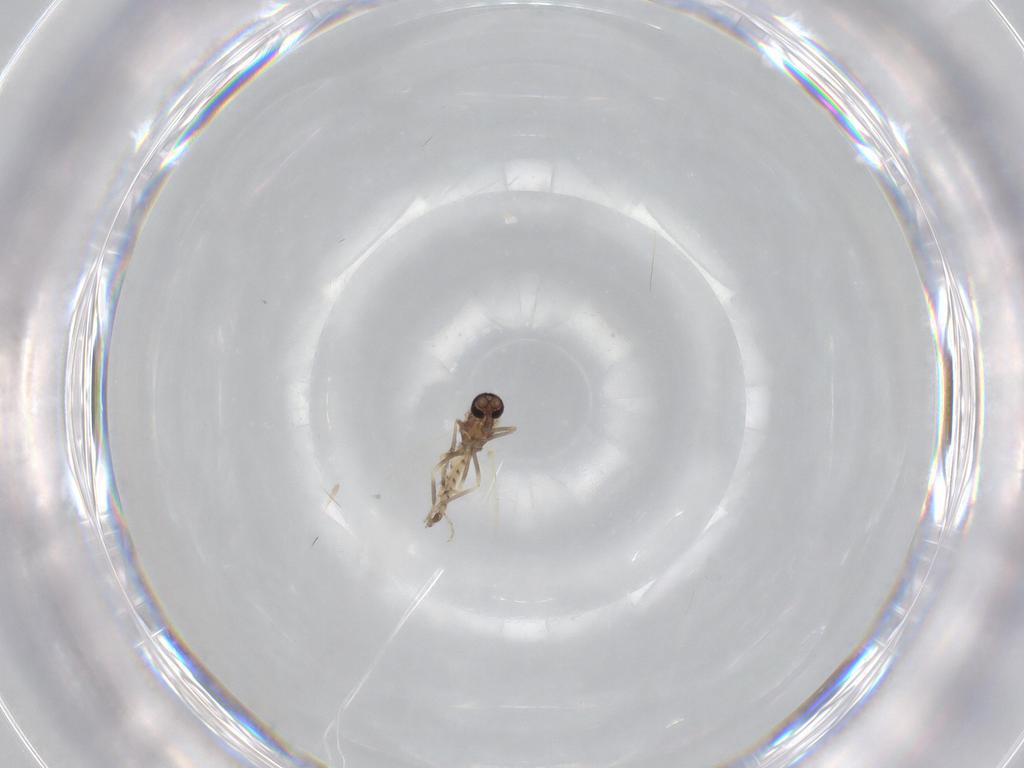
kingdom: Animalia
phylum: Arthropoda
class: Insecta
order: Diptera
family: Ceratopogonidae
